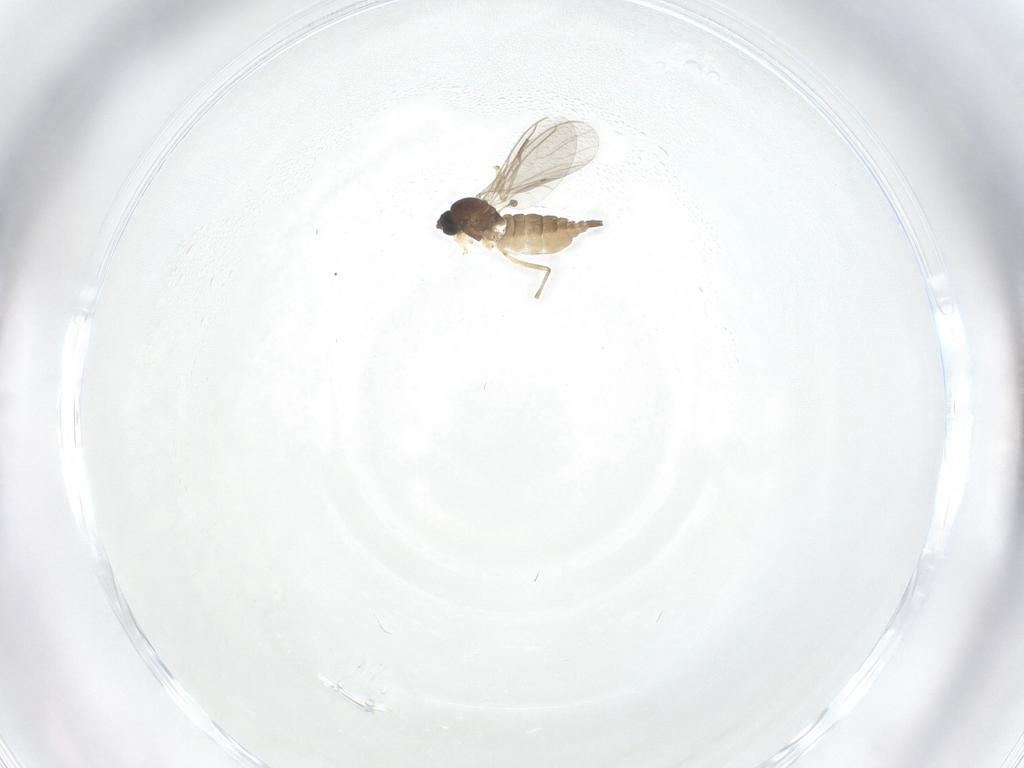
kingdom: Animalia
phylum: Arthropoda
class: Insecta
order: Diptera
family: Sciaridae
